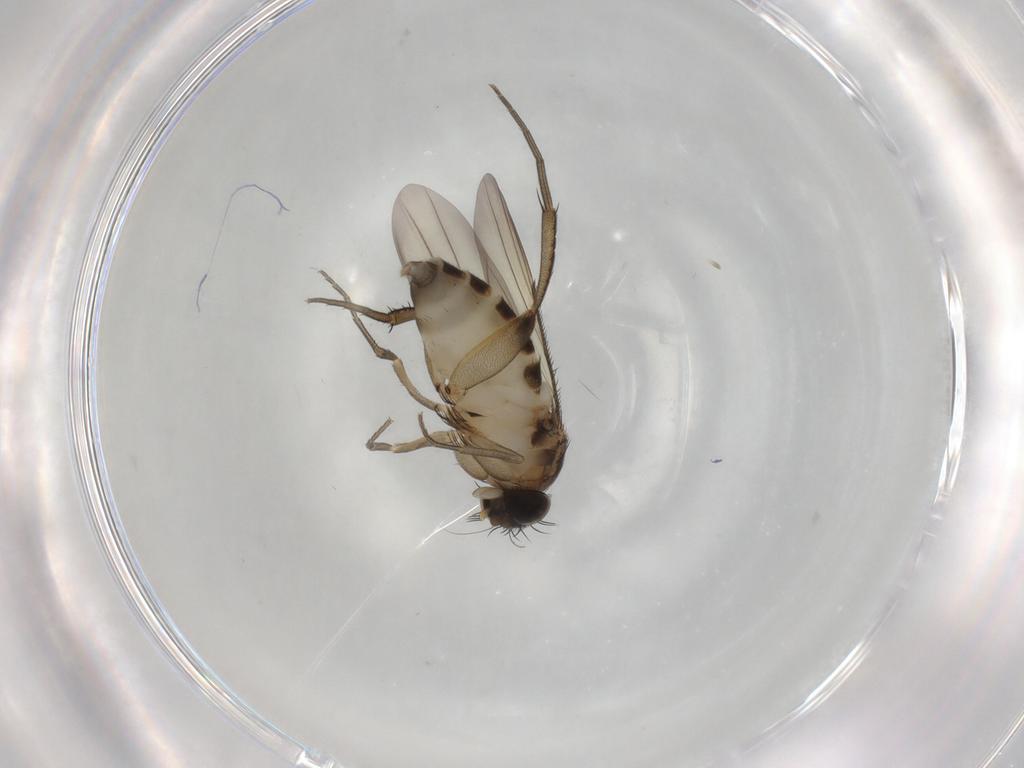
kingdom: Animalia
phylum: Arthropoda
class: Insecta
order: Diptera
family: Phoridae
